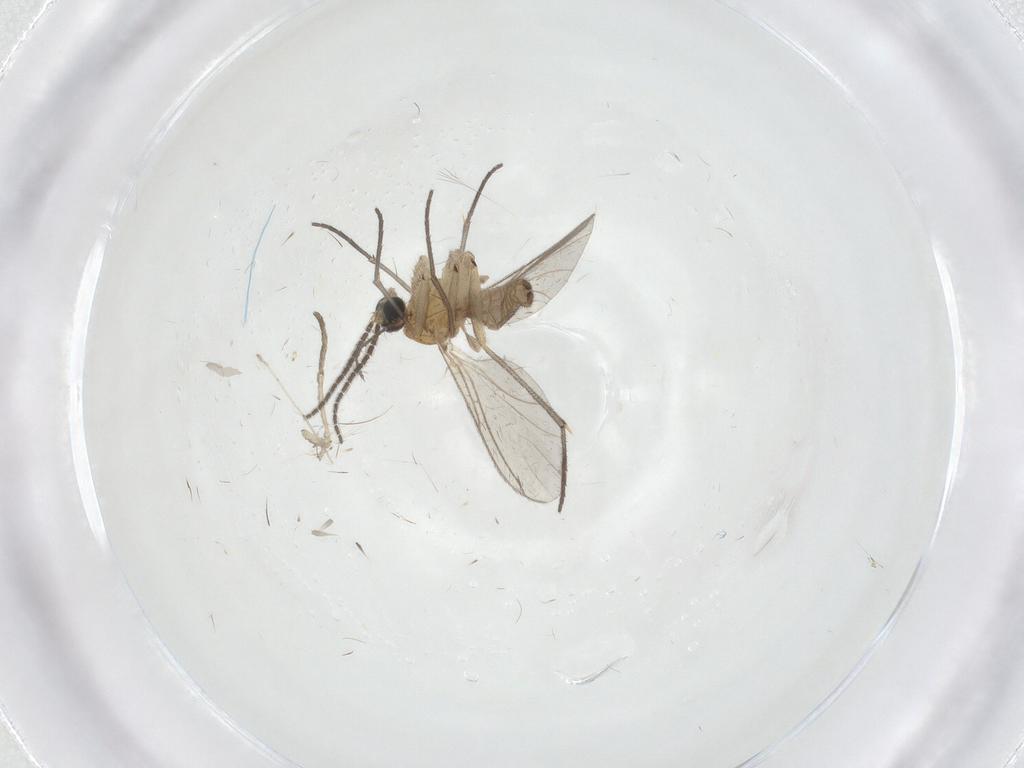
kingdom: Animalia
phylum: Arthropoda
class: Insecta
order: Diptera
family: Sciaridae
